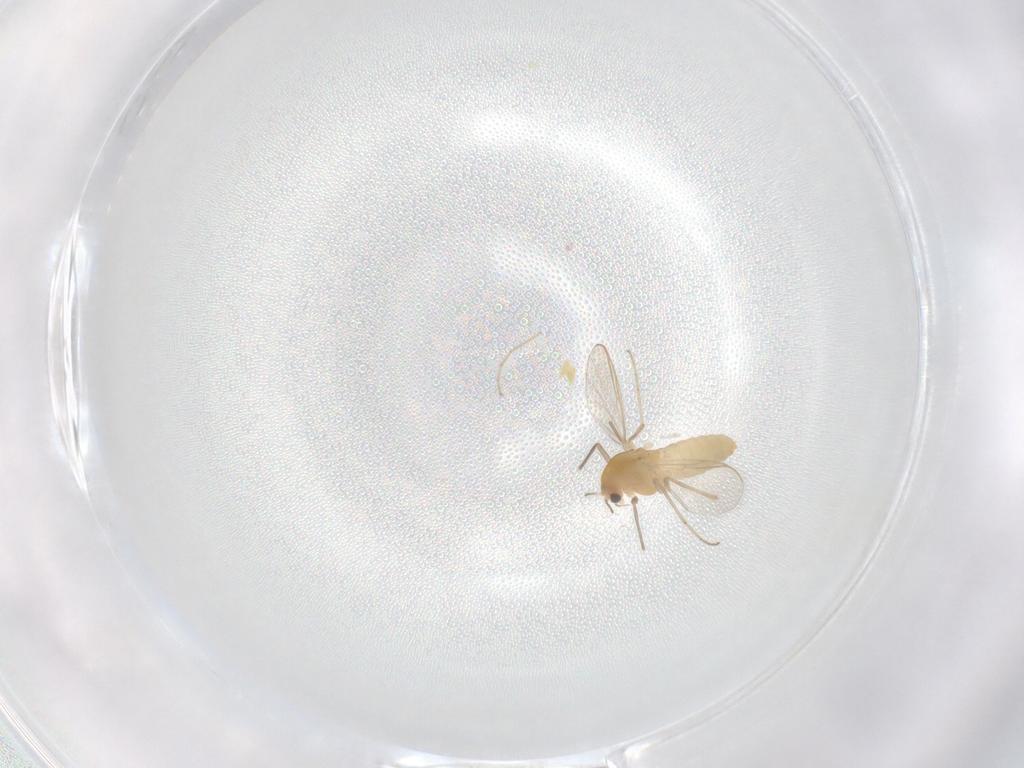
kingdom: Animalia
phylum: Arthropoda
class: Insecta
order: Diptera
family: Chironomidae
